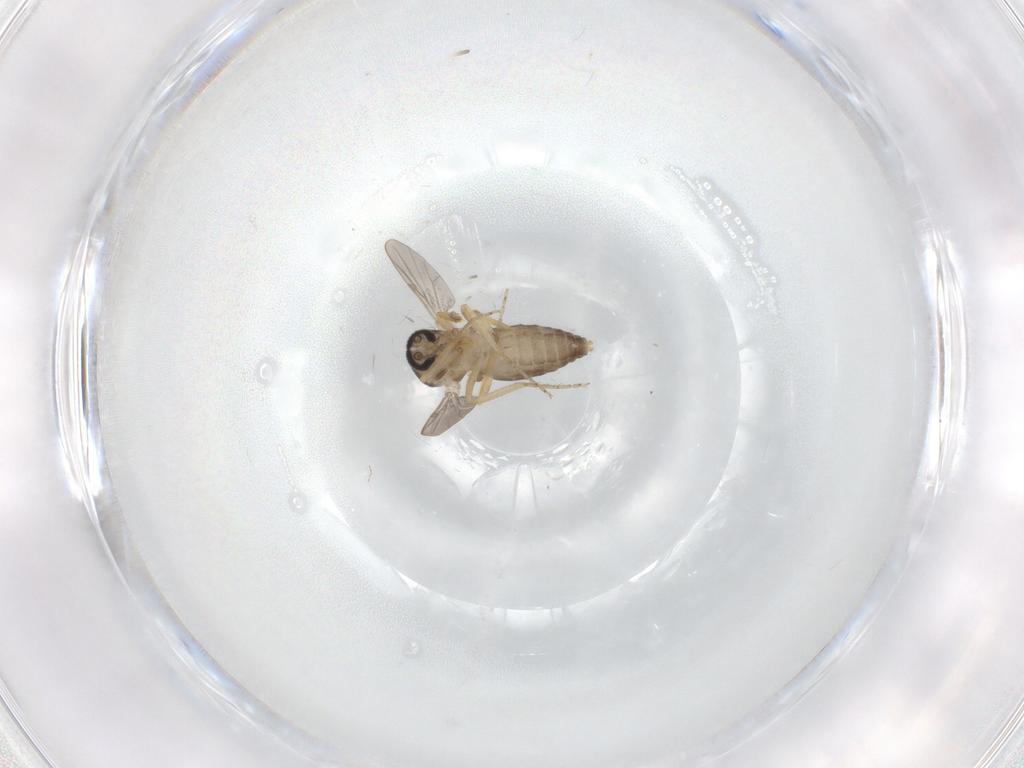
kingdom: Animalia
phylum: Arthropoda
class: Insecta
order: Diptera
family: Ceratopogonidae
